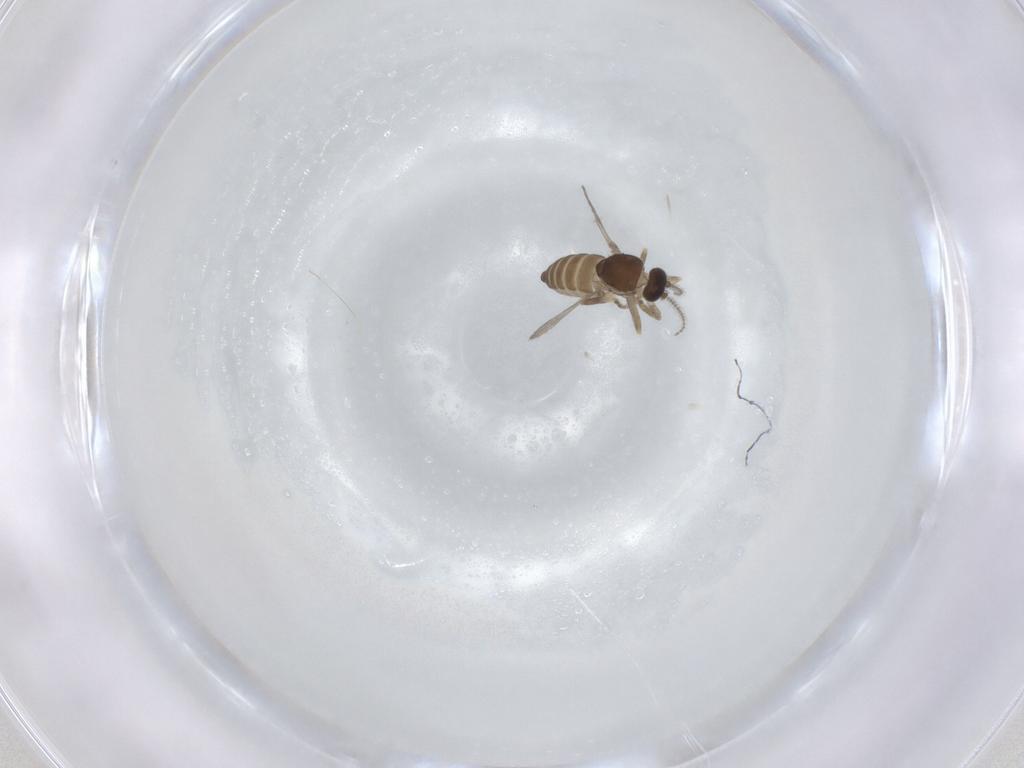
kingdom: Animalia
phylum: Arthropoda
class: Insecta
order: Diptera
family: Ceratopogonidae
